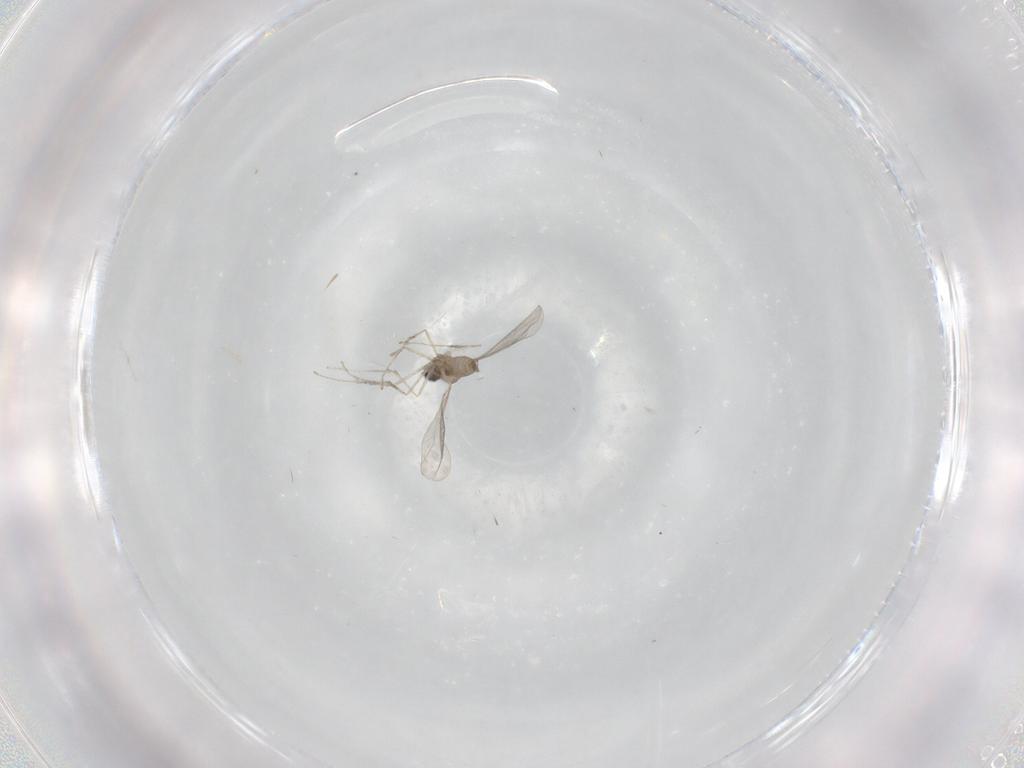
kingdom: Animalia
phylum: Arthropoda
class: Insecta
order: Diptera
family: Cecidomyiidae
